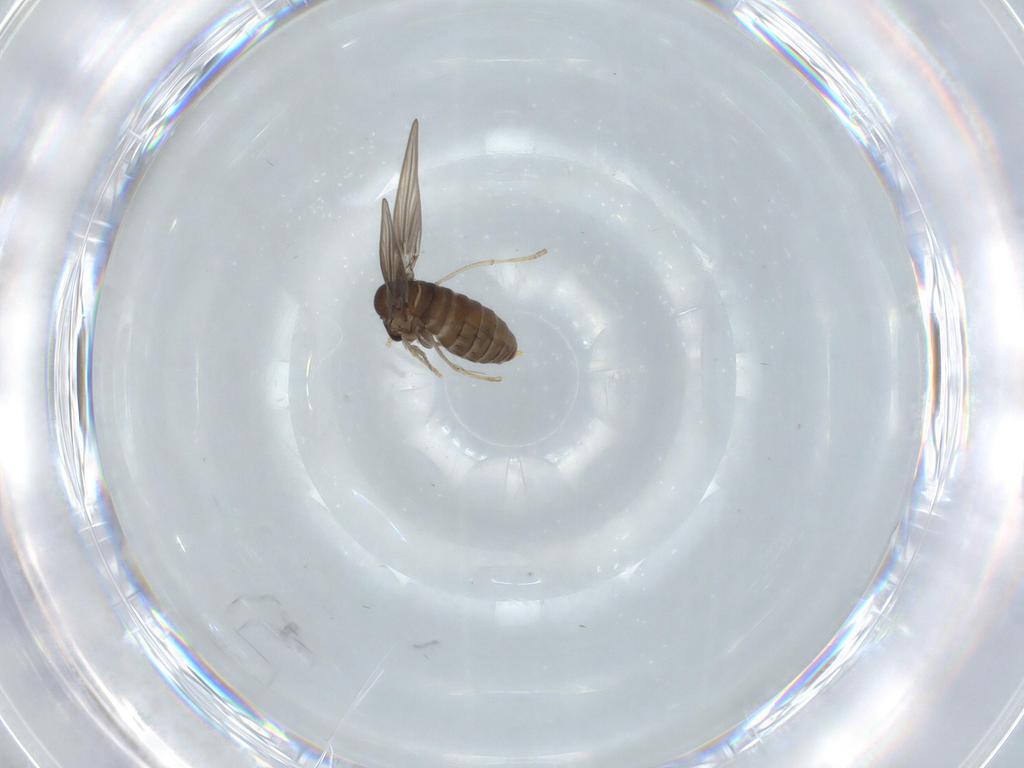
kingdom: Animalia
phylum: Arthropoda
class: Insecta
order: Diptera
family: Psychodidae
